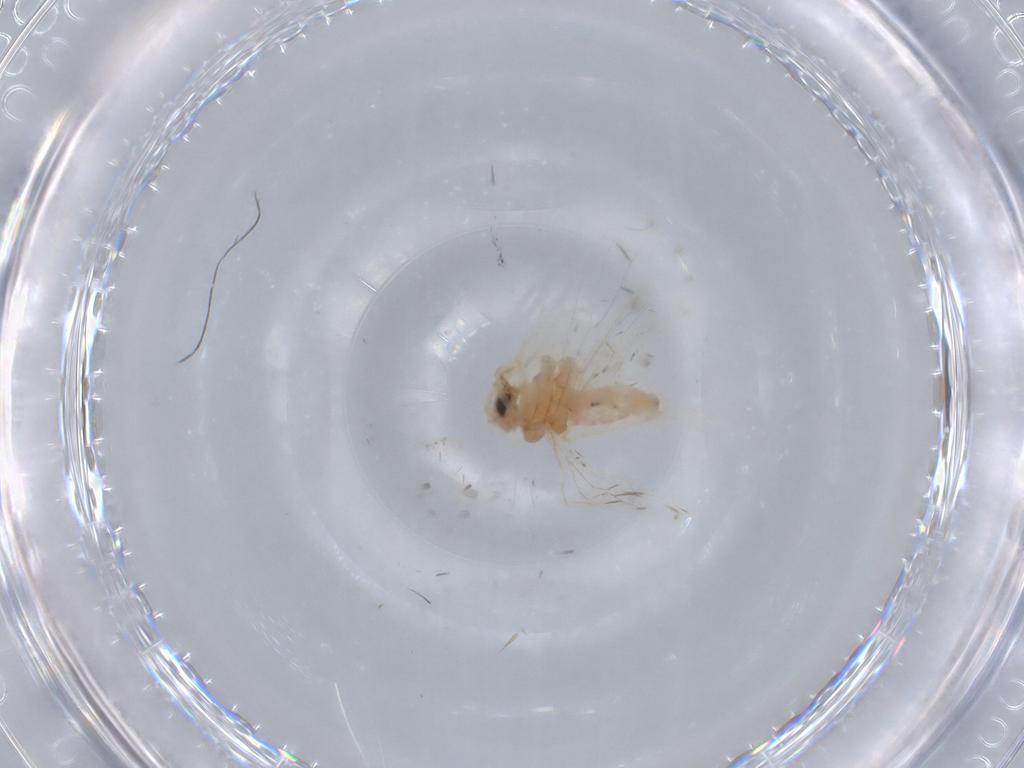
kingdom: Animalia
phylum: Arthropoda
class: Insecta
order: Neuroptera
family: Coniopterygidae
